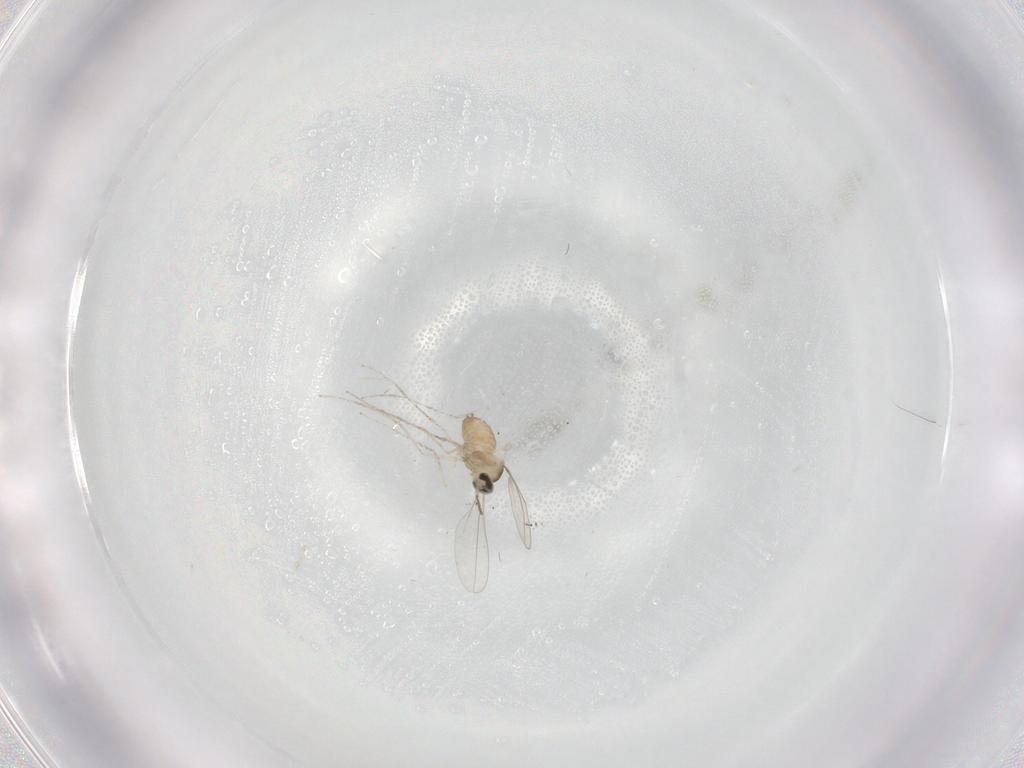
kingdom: Animalia
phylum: Arthropoda
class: Insecta
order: Diptera
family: Chironomidae
